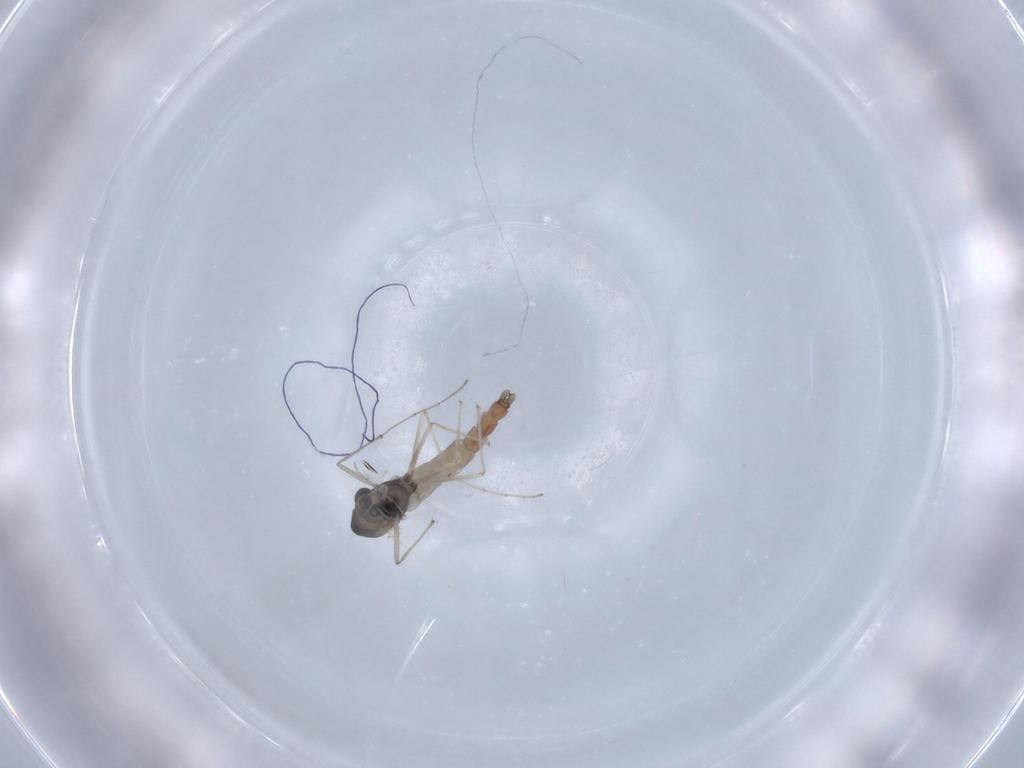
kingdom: Animalia
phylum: Arthropoda
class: Insecta
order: Diptera
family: Chironomidae
